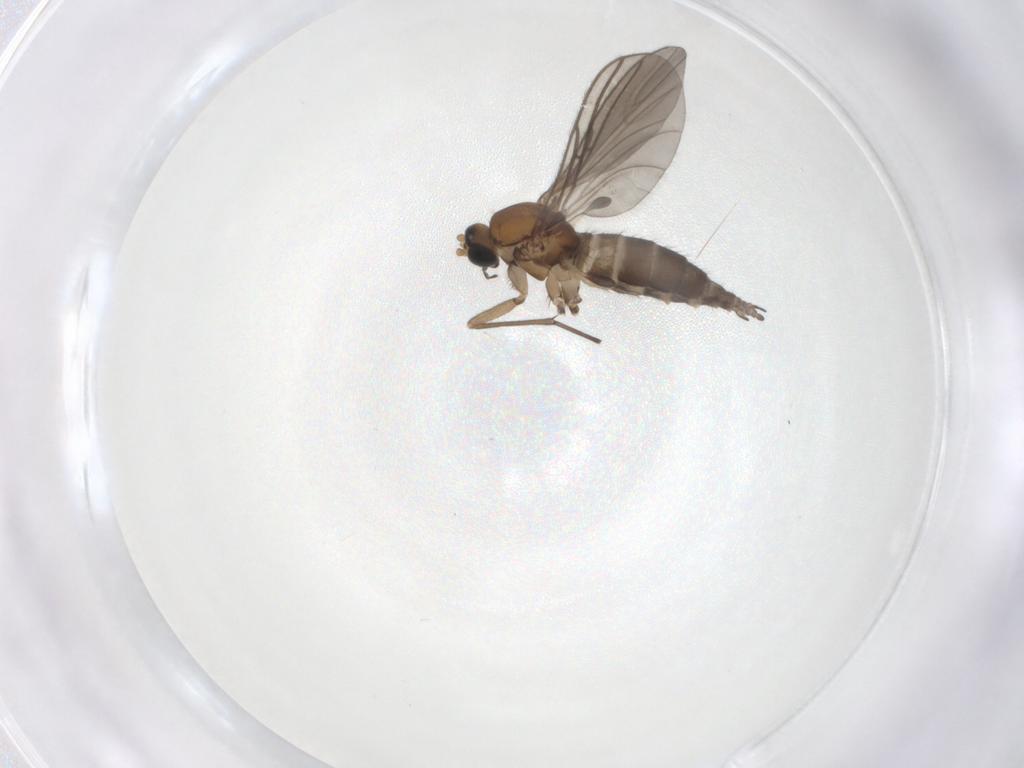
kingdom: Animalia
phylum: Arthropoda
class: Insecta
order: Diptera
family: Sciaridae
